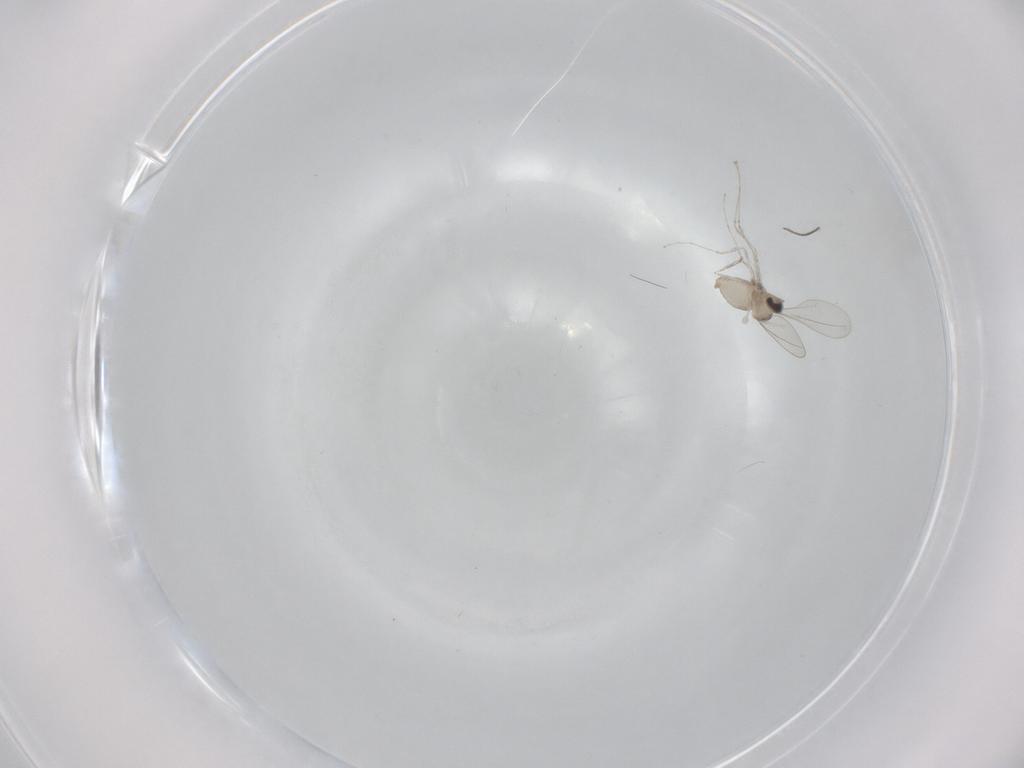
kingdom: Animalia
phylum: Arthropoda
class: Insecta
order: Diptera
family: Cecidomyiidae
